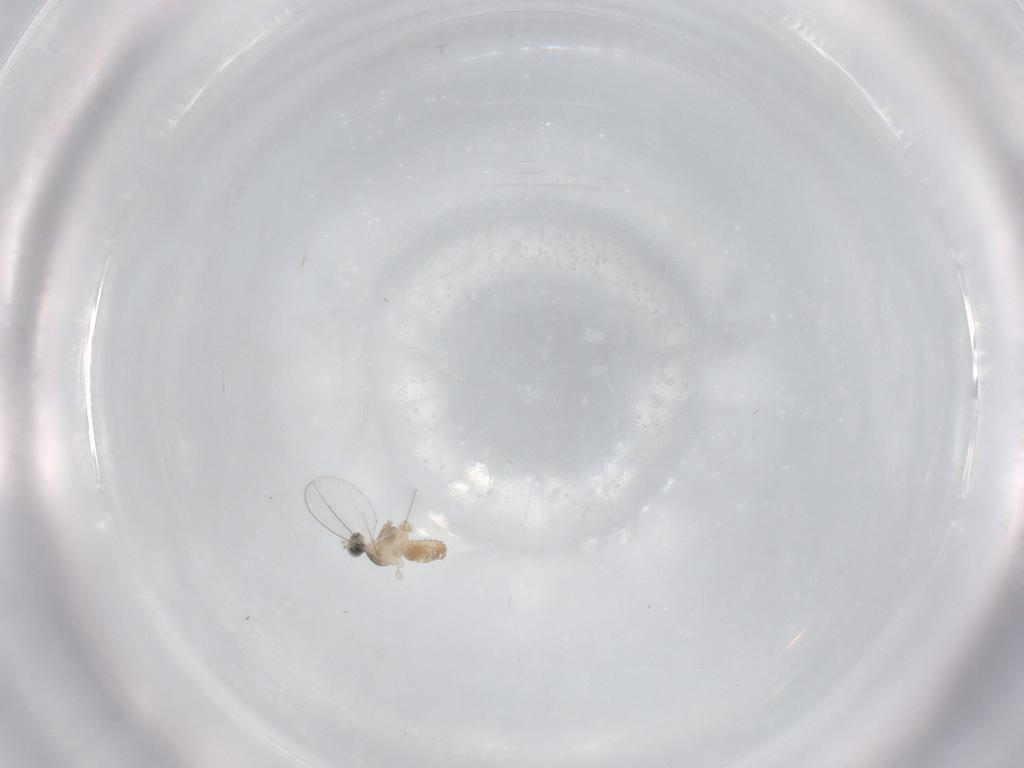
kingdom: Animalia
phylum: Arthropoda
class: Insecta
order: Diptera
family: Cecidomyiidae
